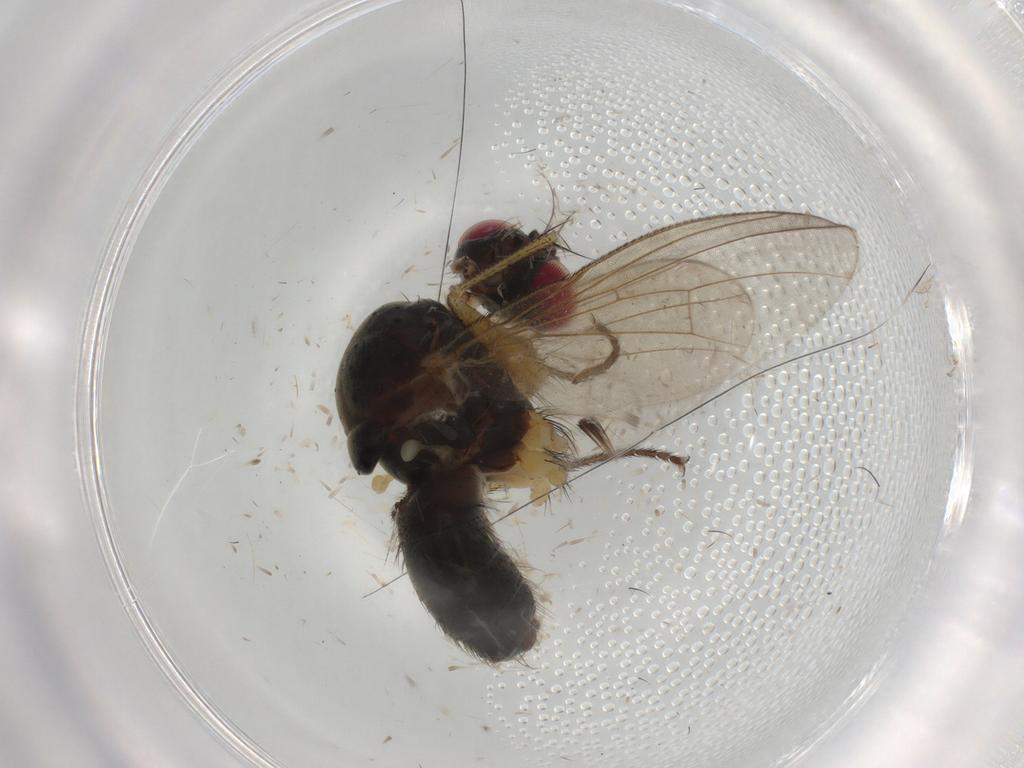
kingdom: Animalia
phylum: Arthropoda
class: Insecta
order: Diptera
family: Muscidae
